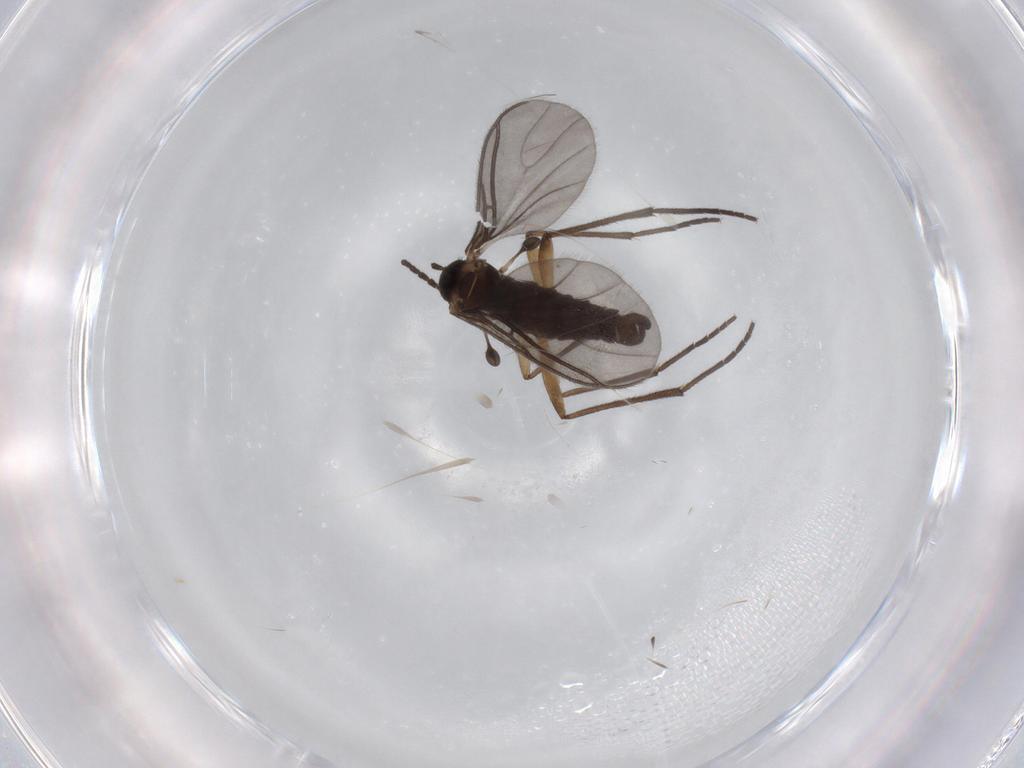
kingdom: Animalia
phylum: Arthropoda
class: Insecta
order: Diptera
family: Sciaridae
